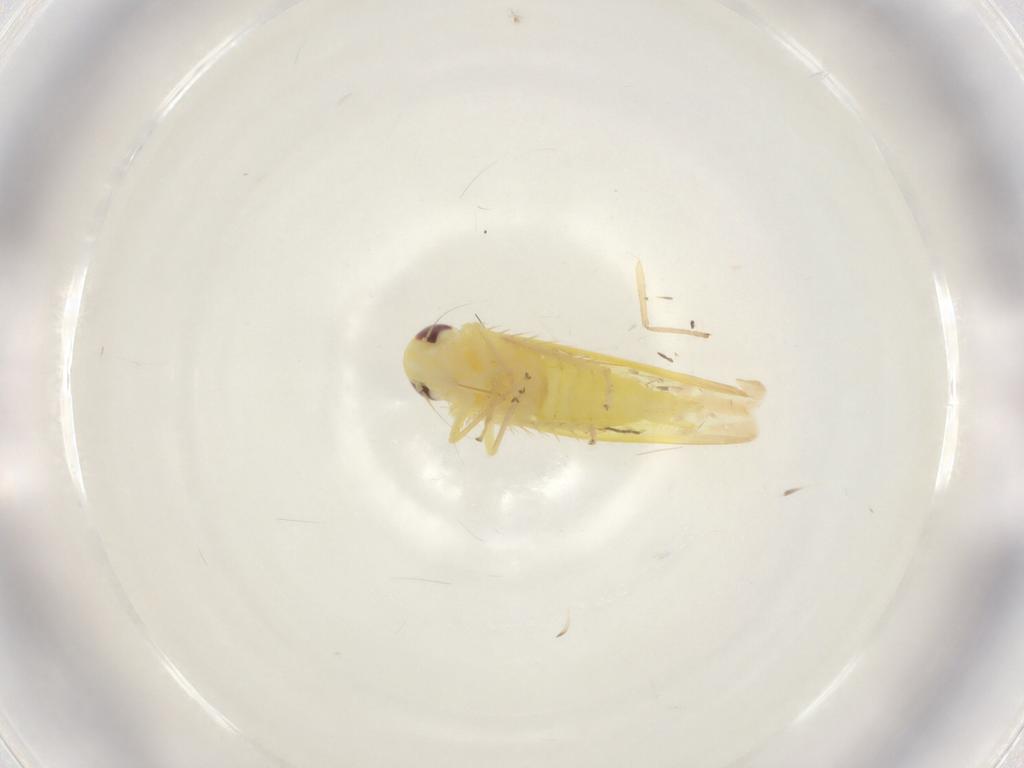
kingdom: Animalia
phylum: Arthropoda
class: Insecta
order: Hemiptera
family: Cicadellidae
